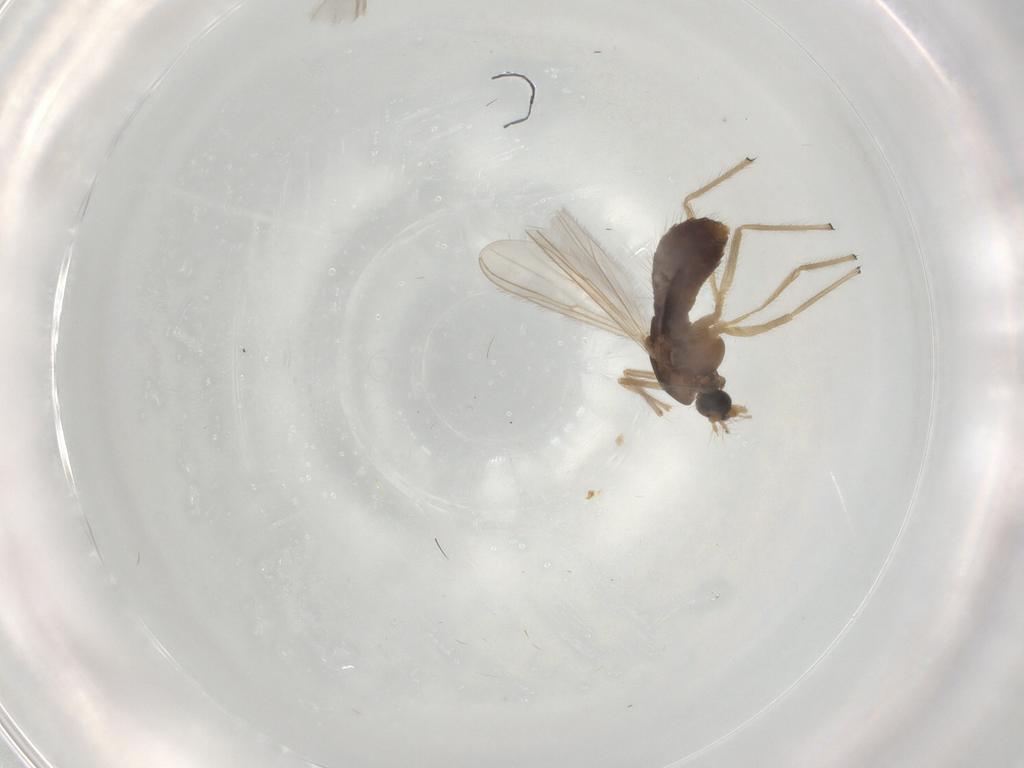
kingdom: Animalia
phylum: Arthropoda
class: Insecta
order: Diptera
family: Chironomidae
